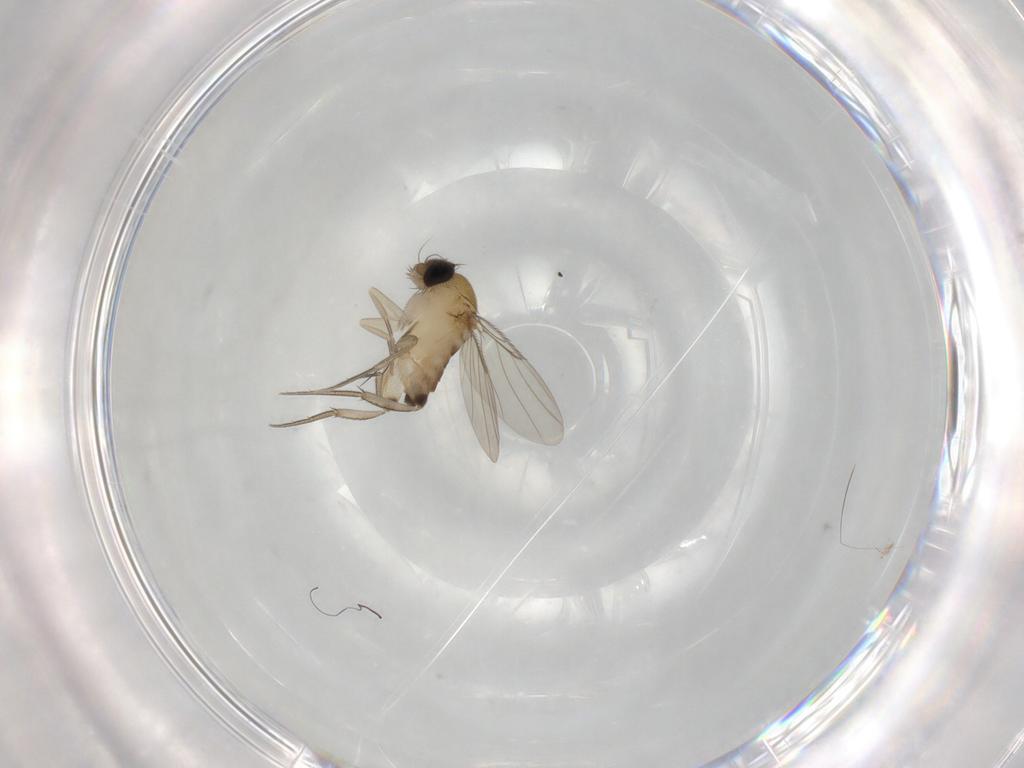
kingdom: Animalia
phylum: Arthropoda
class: Insecta
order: Diptera
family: Phoridae
